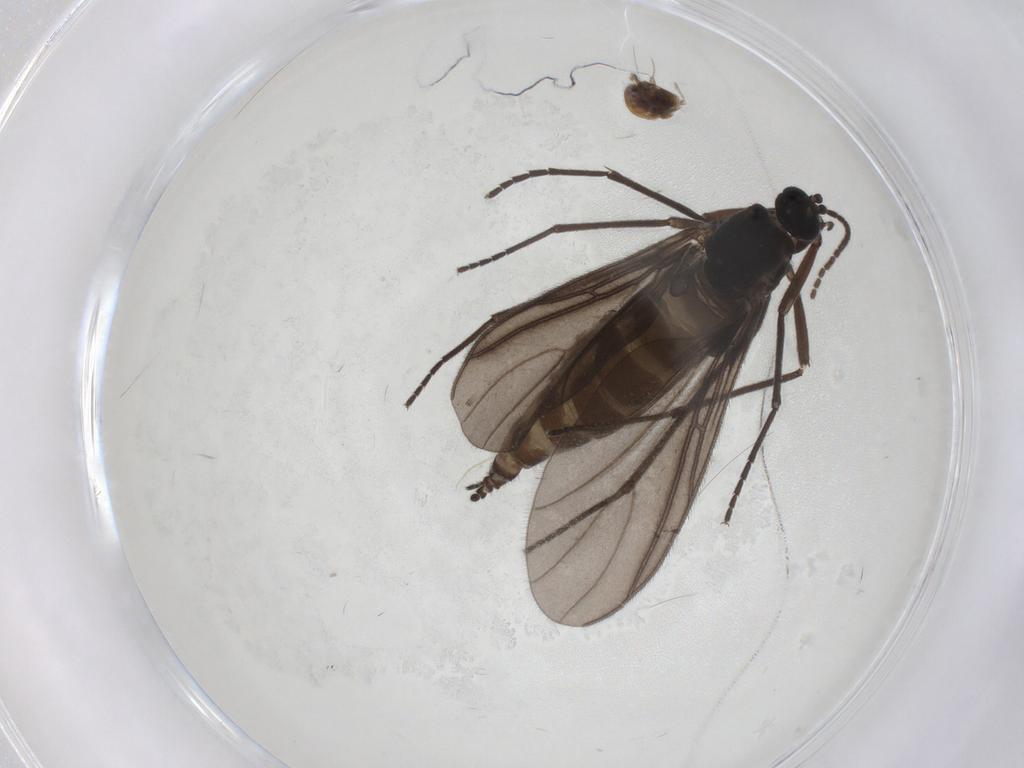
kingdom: Animalia
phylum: Arthropoda
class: Insecta
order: Diptera
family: Sciaridae
